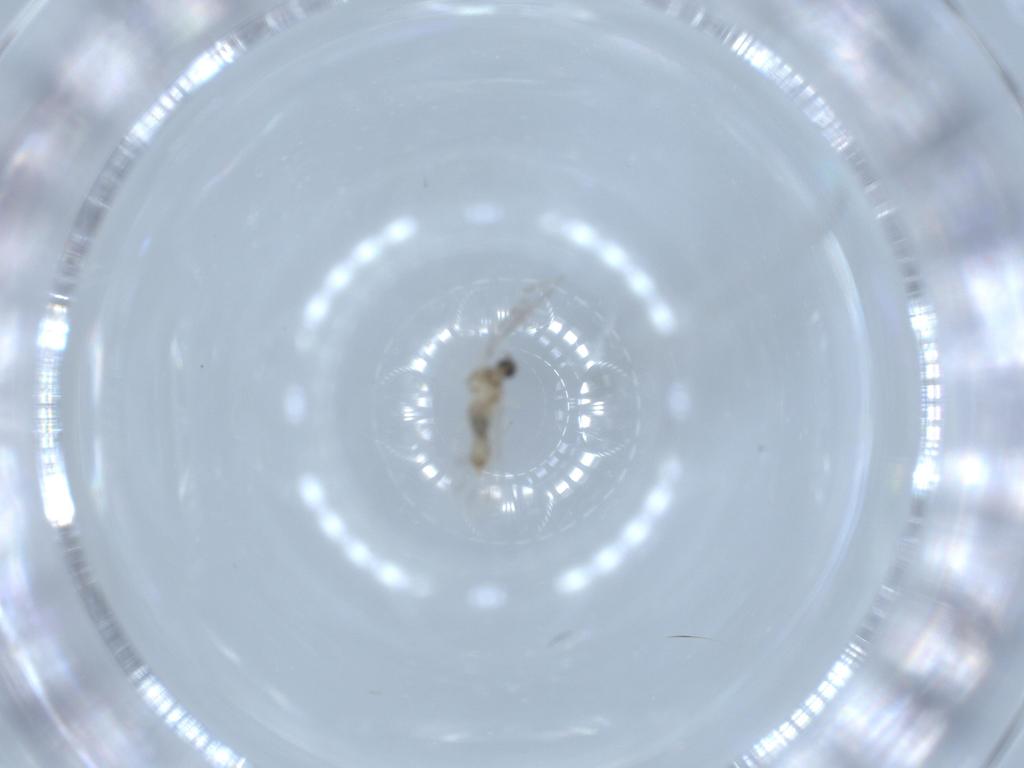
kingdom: Animalia
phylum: Arthropoda
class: Insecta
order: Diptera
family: Cecidomyiidae
